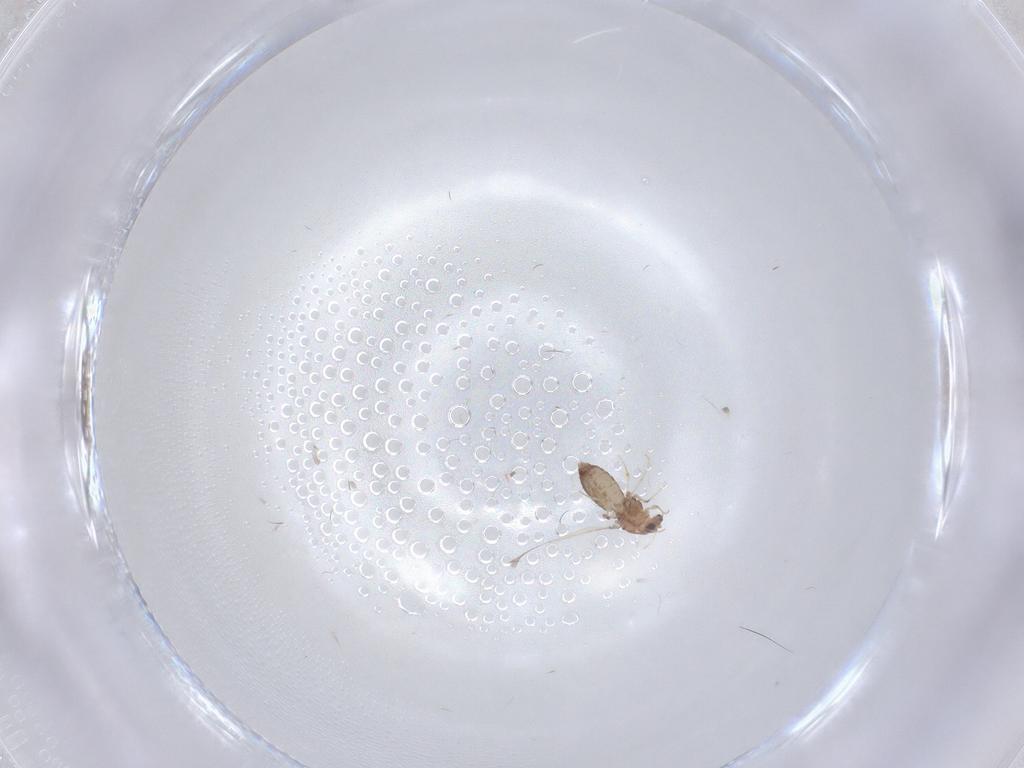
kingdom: Animalia
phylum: Arthropoda
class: Insecta
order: Diptera
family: Chironomidae
